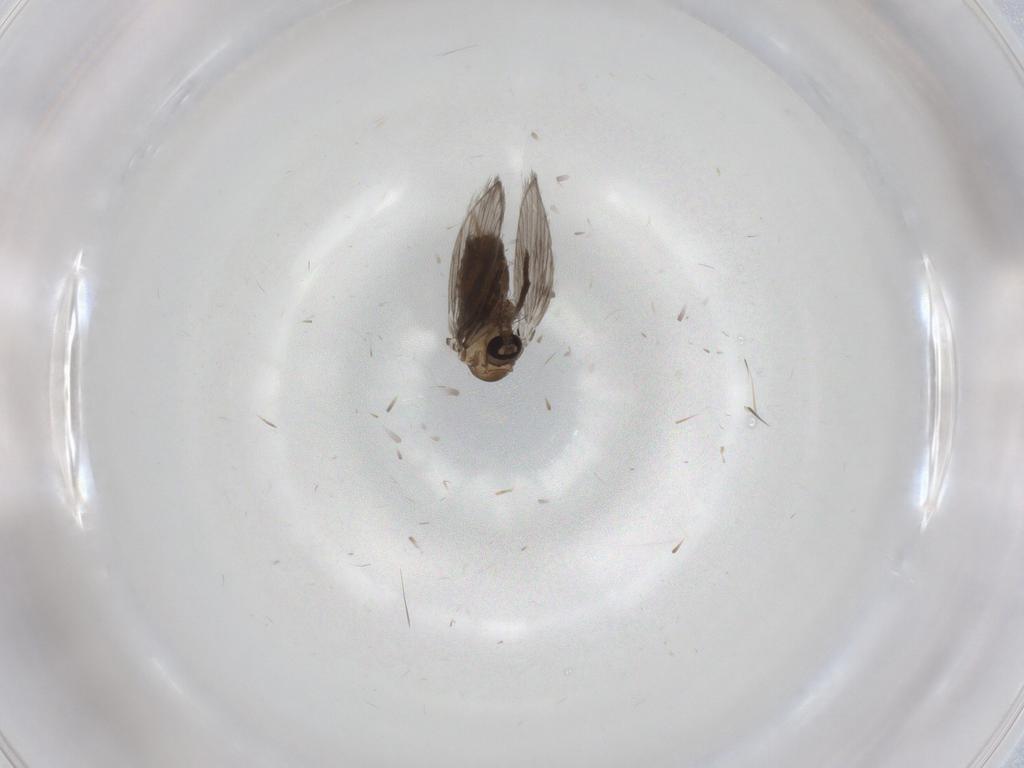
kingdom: Animalia
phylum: Arthropoda
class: Insecta
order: Diptera
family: Psychodidae
